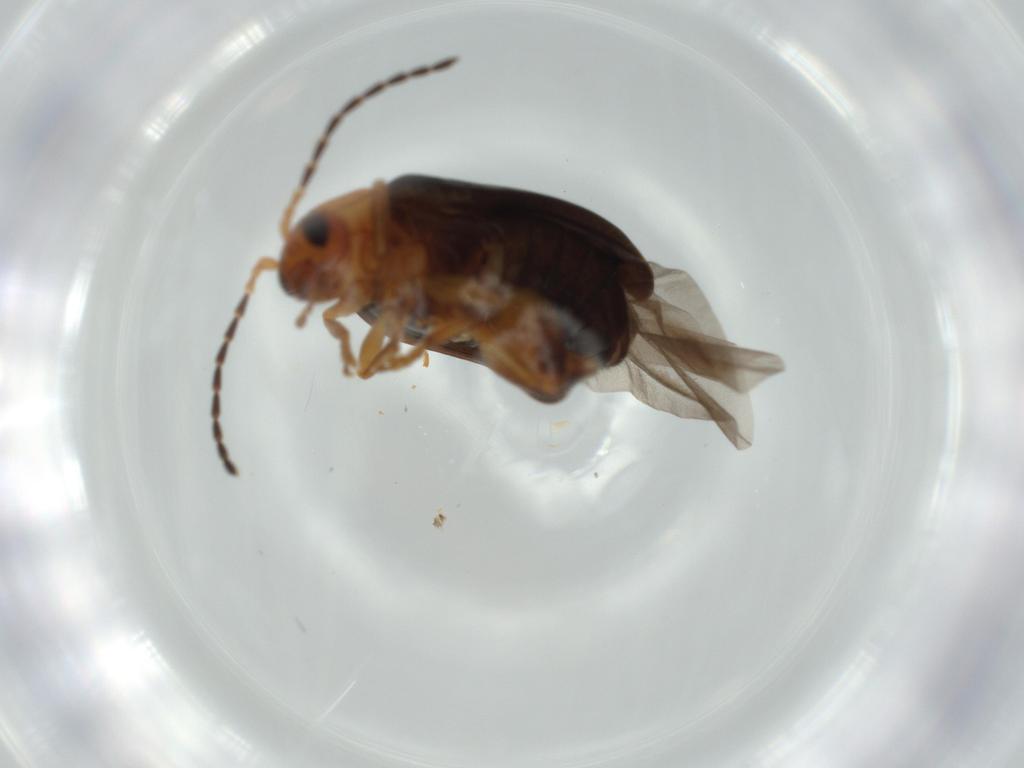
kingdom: Animalia
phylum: Arthropoda
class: Insecta
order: Coleoptera
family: Chrysomelidae
